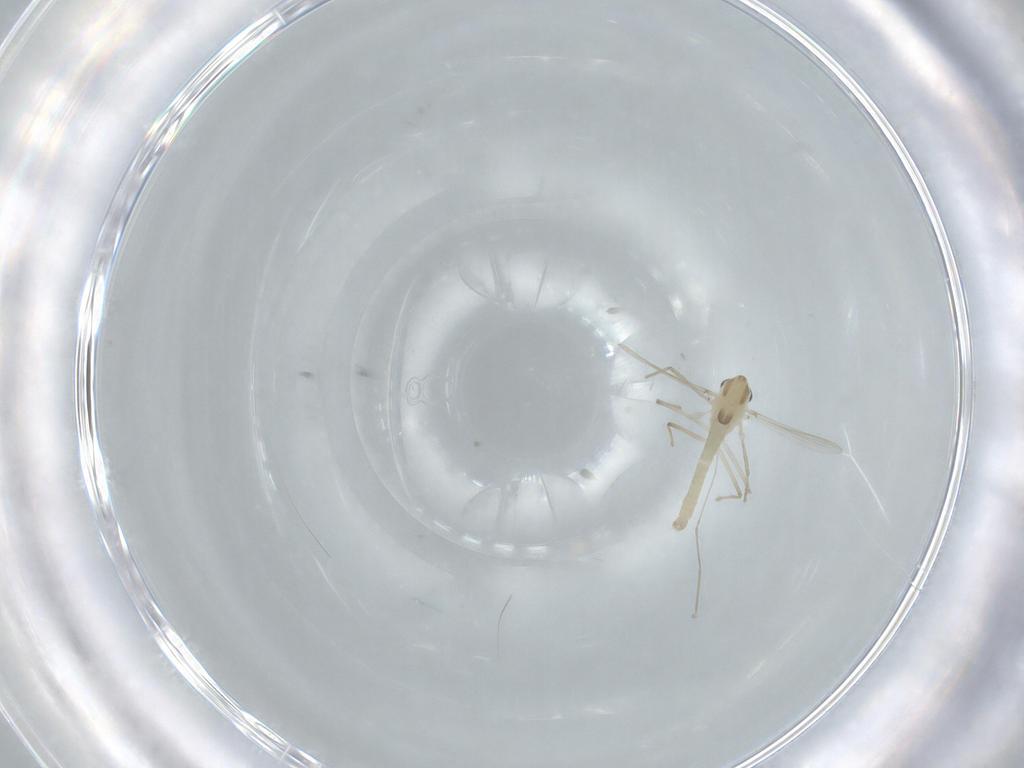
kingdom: Animalia
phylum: Arthropoda
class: Insecta
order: Diptera
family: Chironomidae
